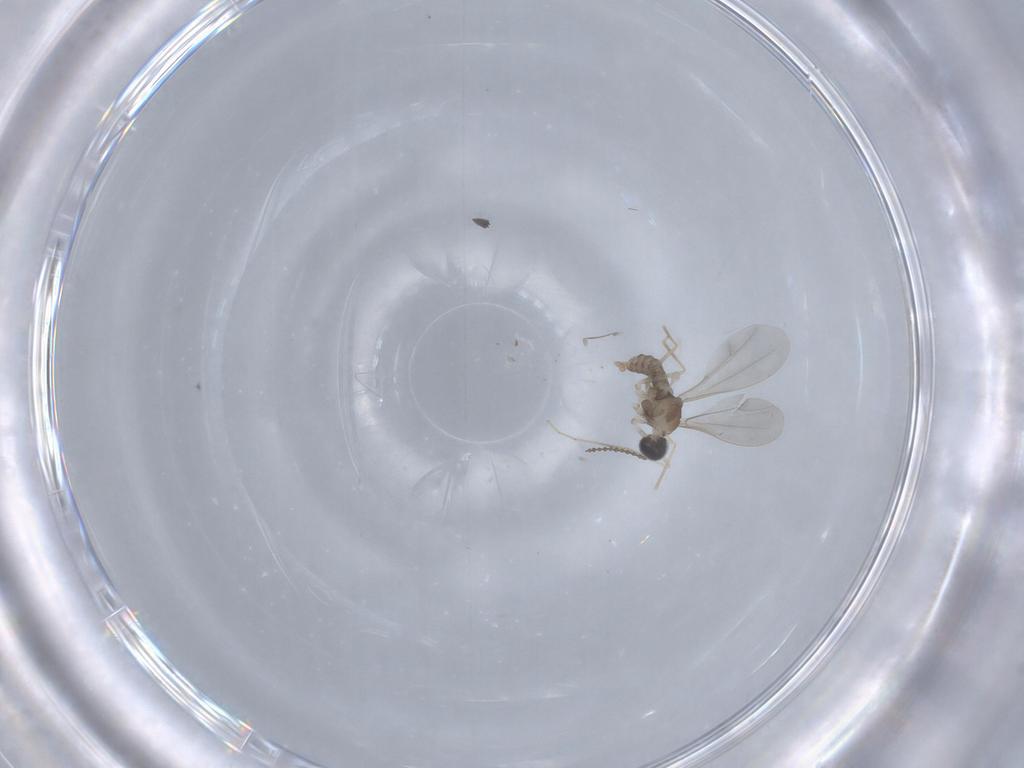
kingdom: Animalia
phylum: Arthropoda
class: Insecta
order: Diptera
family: Cecidomyiidae
